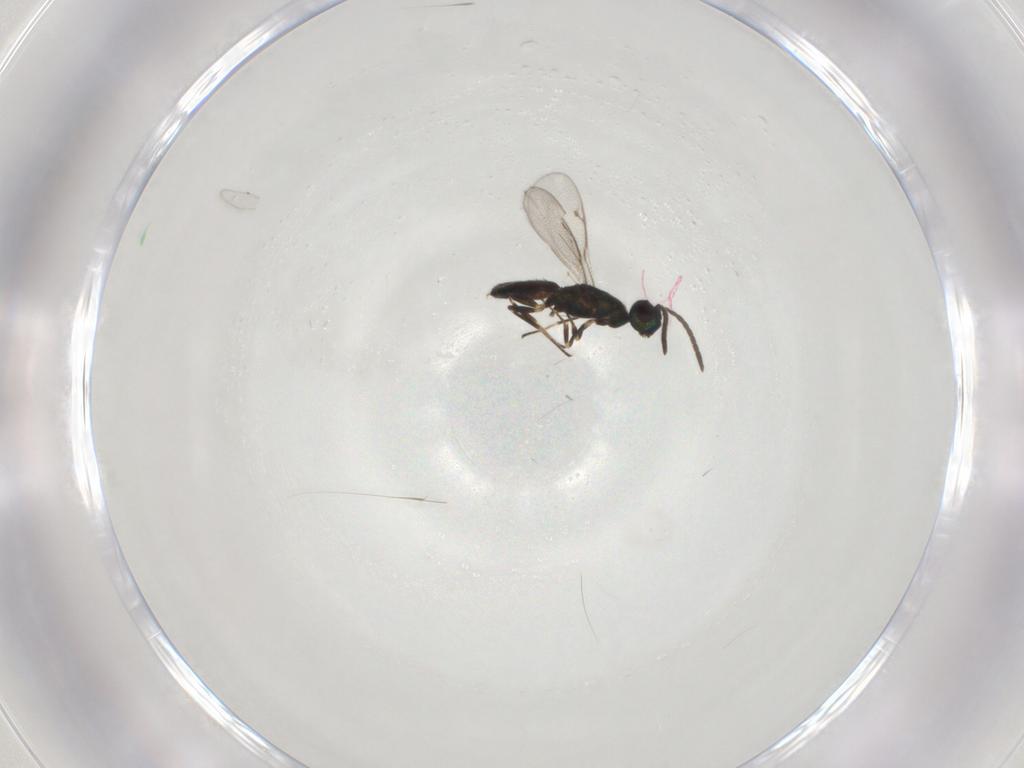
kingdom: Animalia
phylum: Arthropoda
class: Insecta
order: Hymenoptera
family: Eupelmidae
